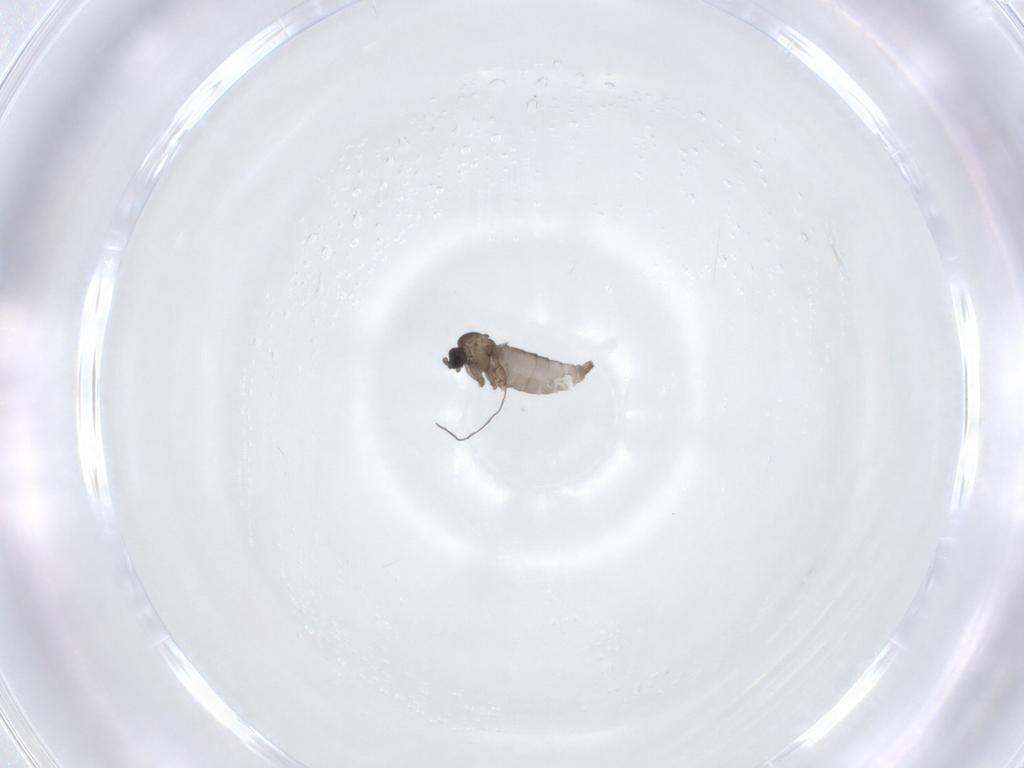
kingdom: Animalia
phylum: Arthropoda
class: Insecta
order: Diptera
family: Sciaridae
